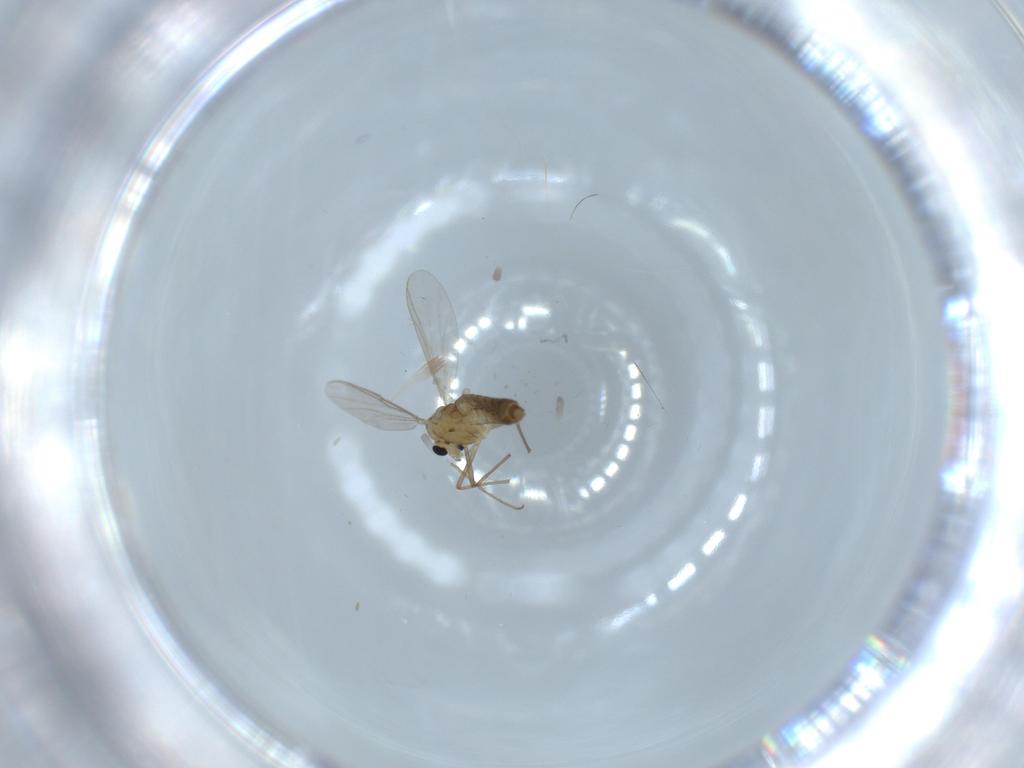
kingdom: Animalia
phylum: Arthropoda
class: Insecta
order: Diptera
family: Chironomidae
